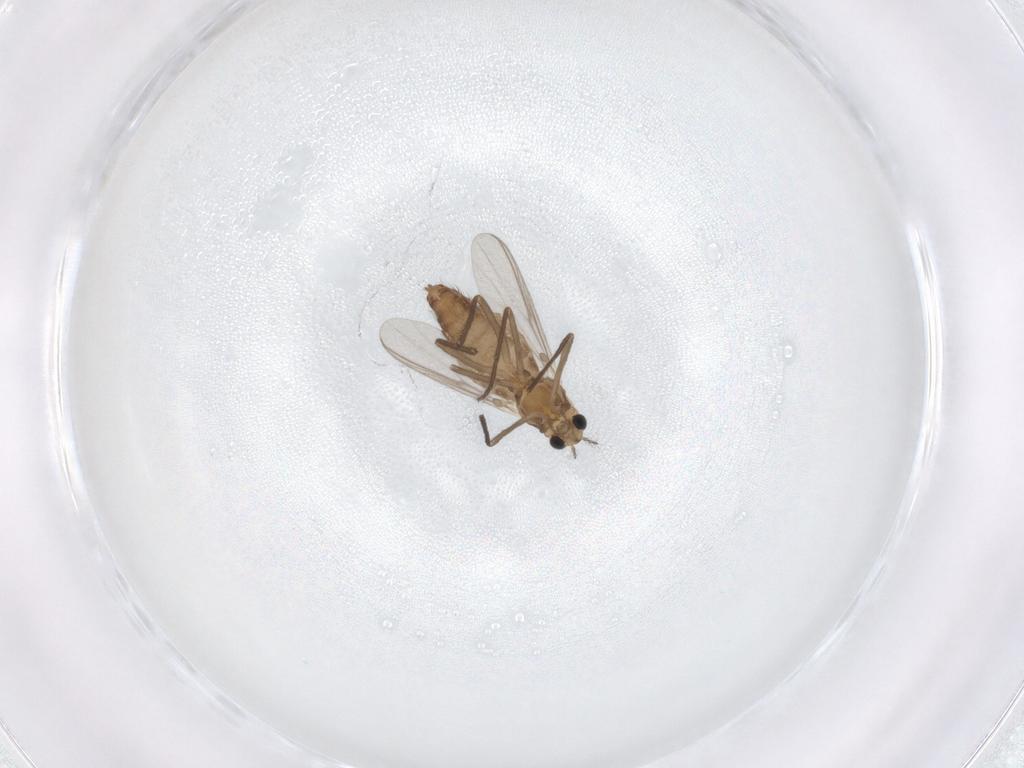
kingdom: Animalia
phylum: Arthropoda
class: Insecta
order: Diptera
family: Chironomidae
